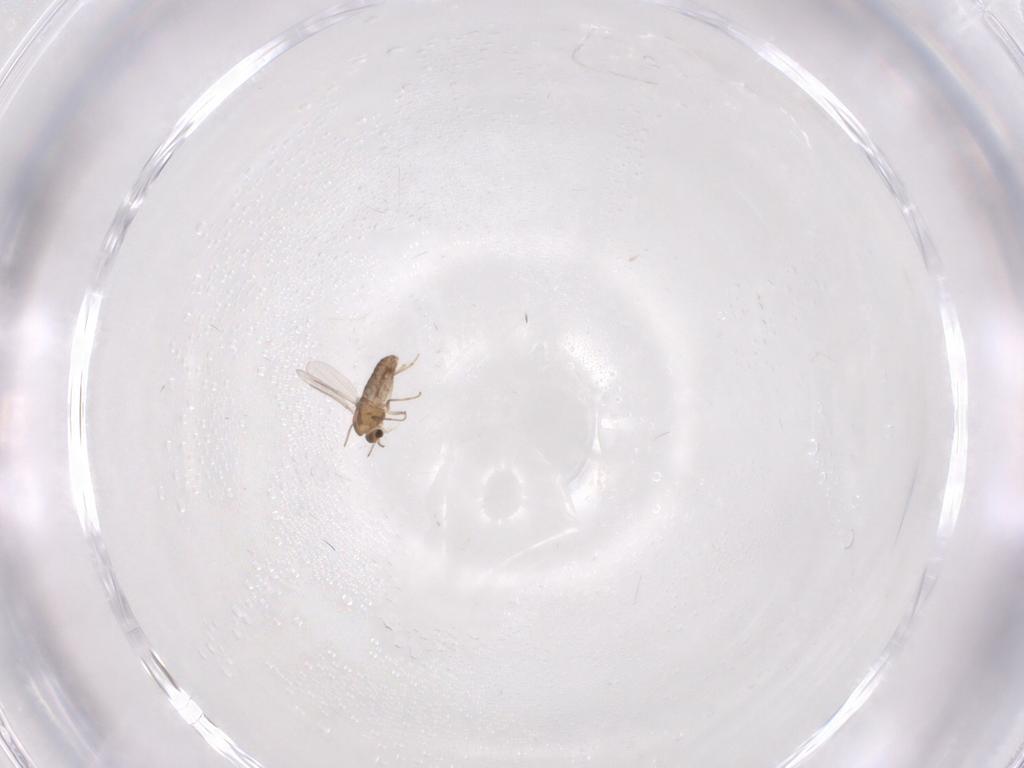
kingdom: Animalia
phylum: Arthropoda
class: Insecta
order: Diptera
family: Chironomidae
